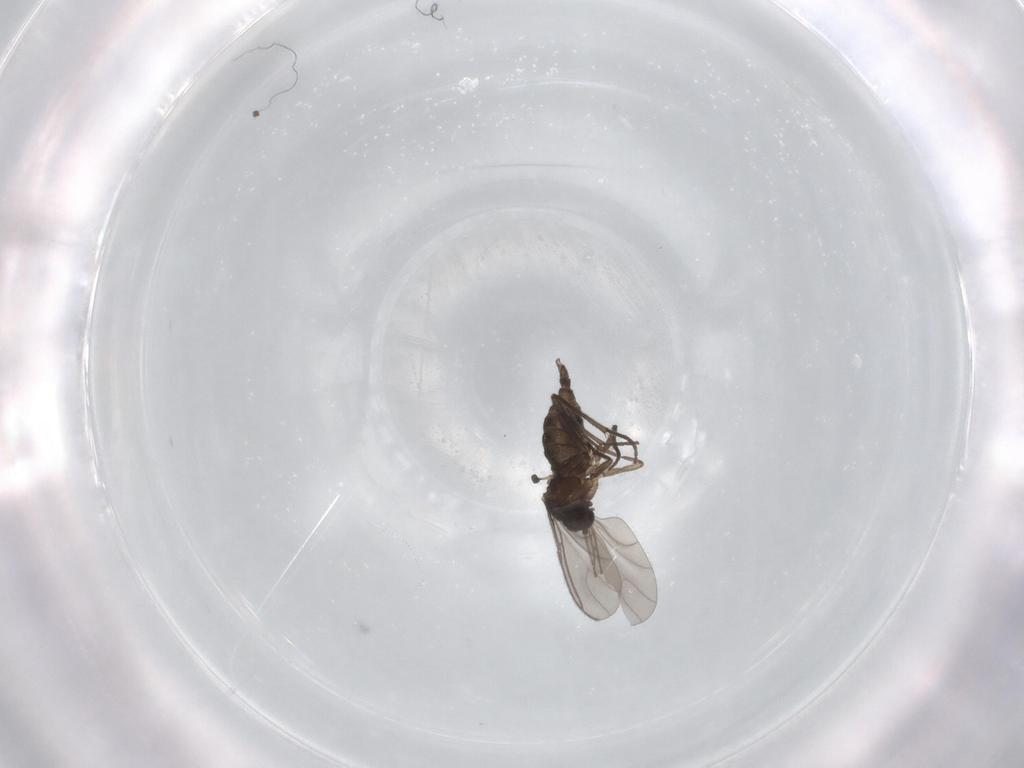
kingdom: Animalia
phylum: Arthropoda
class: Insecta
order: Diptera
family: Sciaridae
